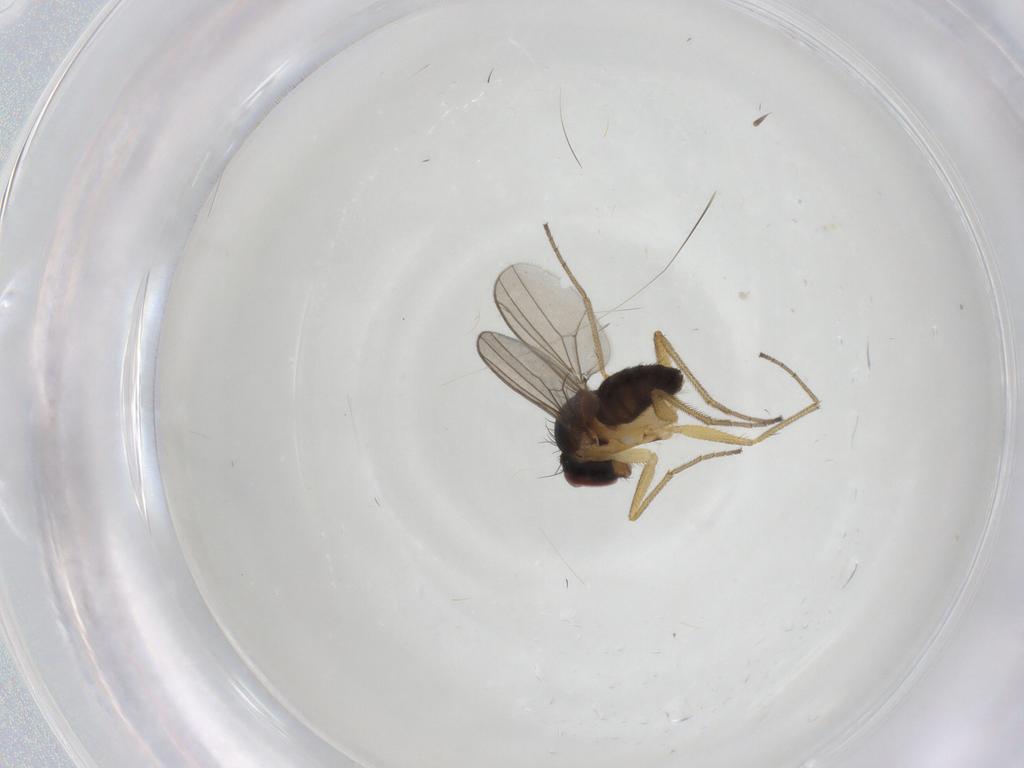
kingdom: Animalia
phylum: Arthropoda
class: Insecta
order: Diptera
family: Dolichopodidae
